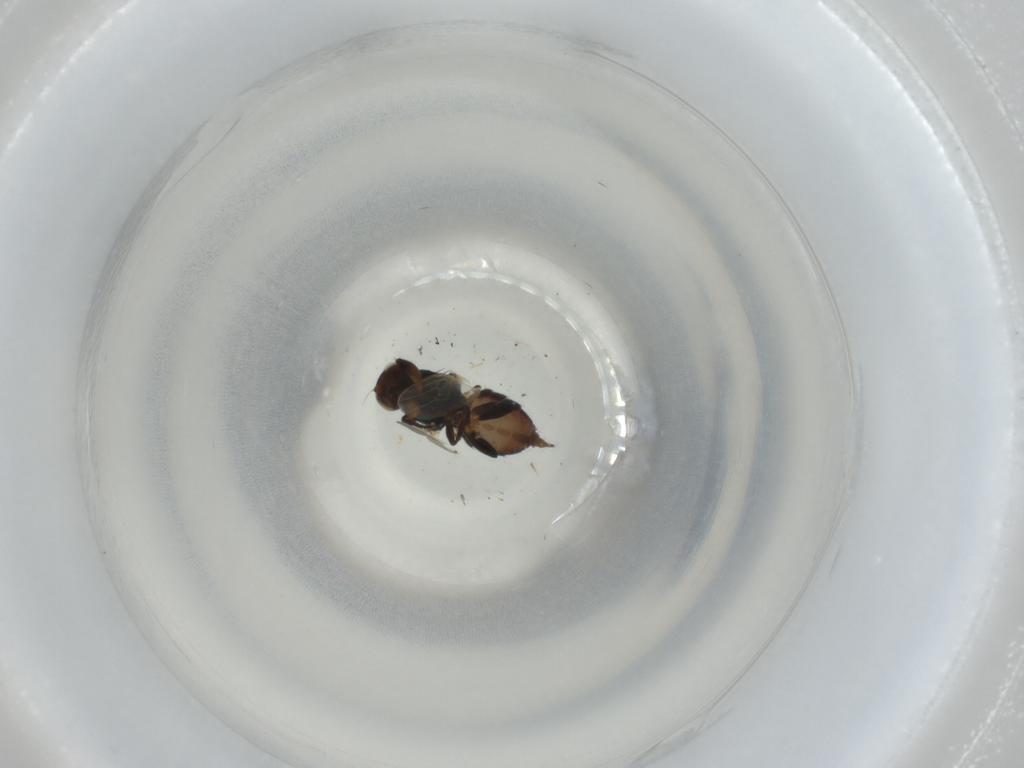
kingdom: Animalia
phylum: Arthropoda
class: Insecta
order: Diptera
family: Chloropidae
